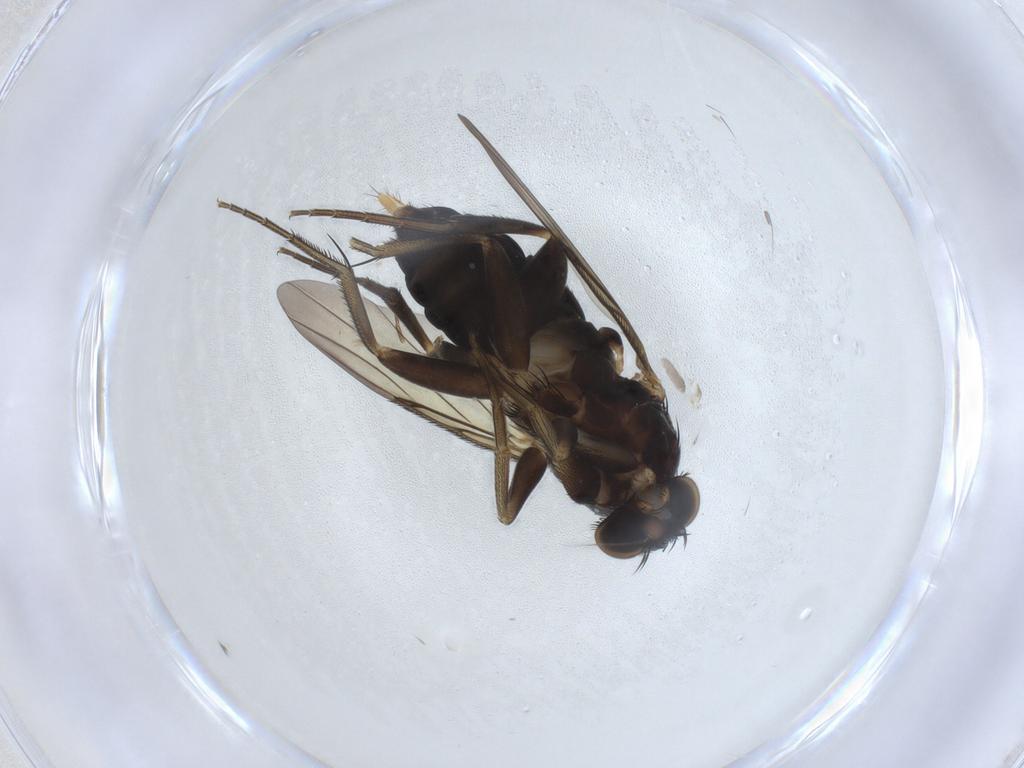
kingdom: Animalia
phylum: Arthropoda
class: Insecta
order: Diptera
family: Phoridae
